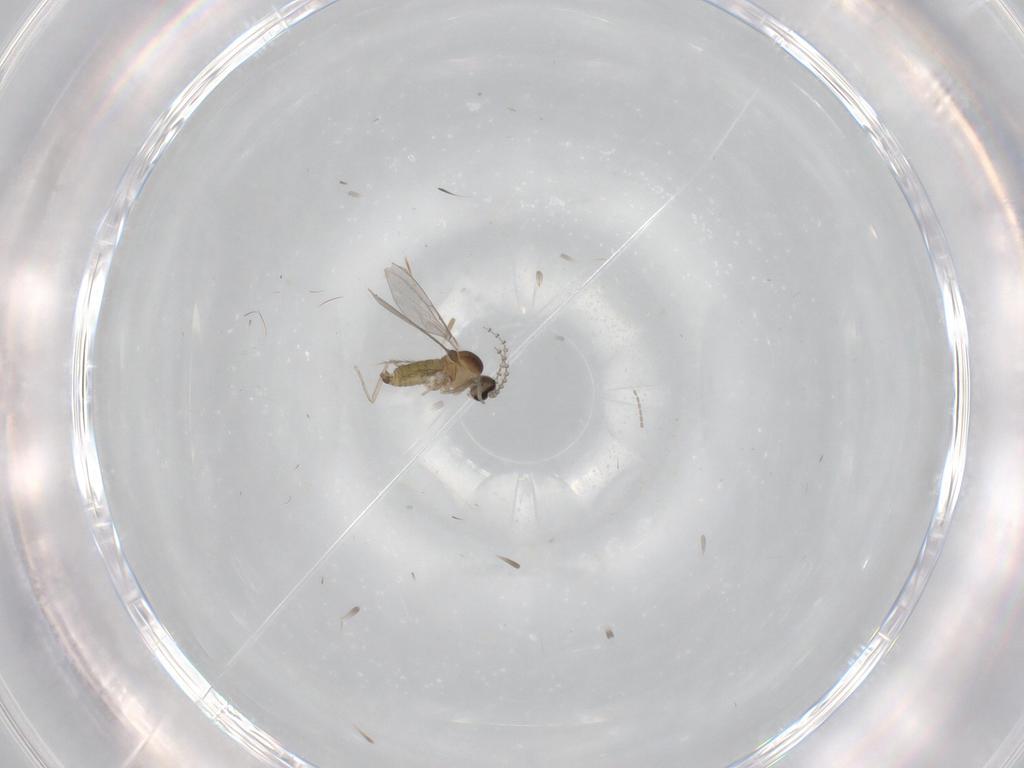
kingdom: Animalia
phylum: Arthropoda
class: Insecta
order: Diptera
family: Cecidomyiidae
